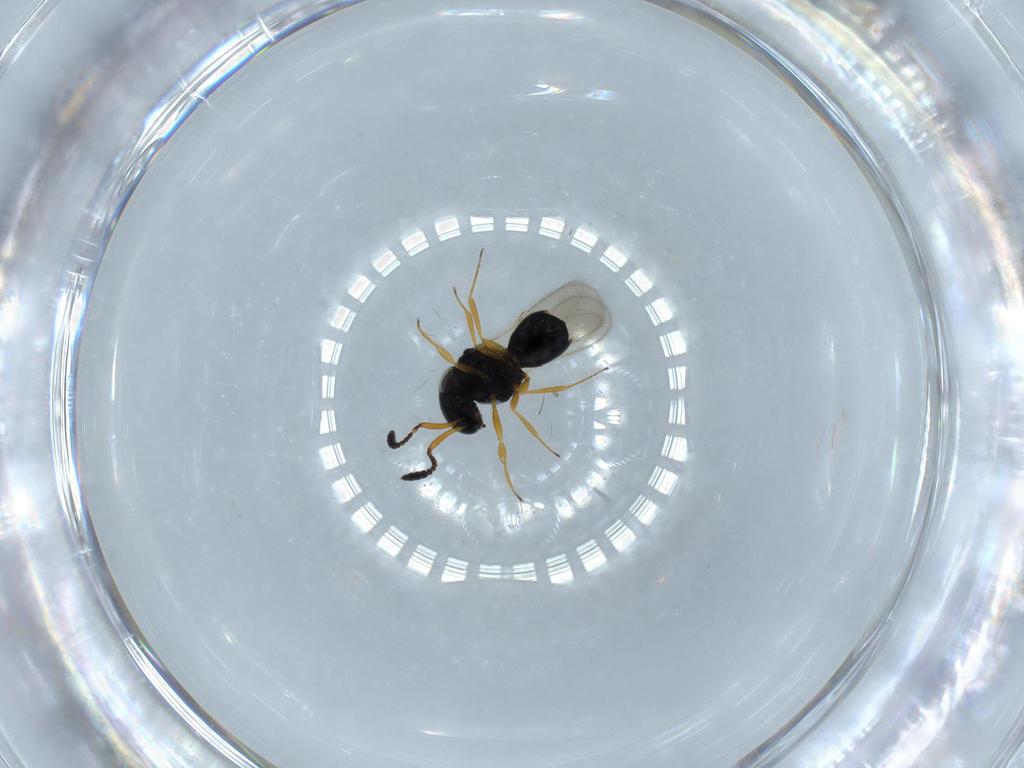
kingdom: Animalia
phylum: Arthropoda
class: Insecta
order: Hymenoptera
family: Scelionidae
